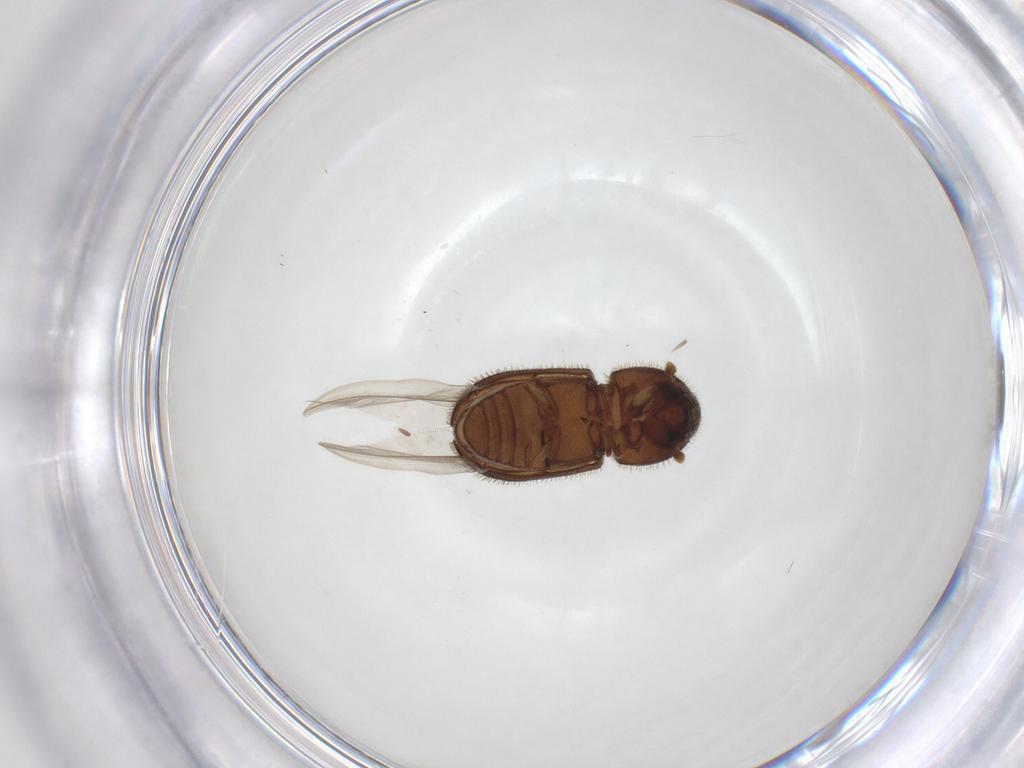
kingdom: Animalia
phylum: Arthropoda
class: Insecta
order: Coleoptera
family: Curculionidae
